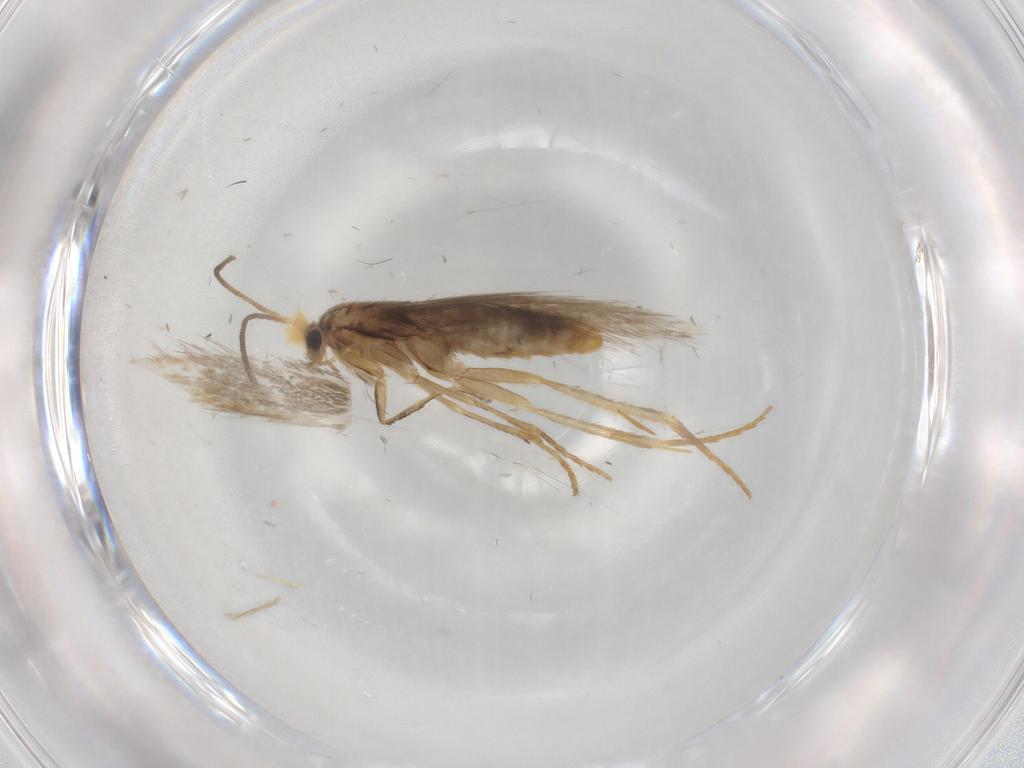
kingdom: Animalia
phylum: Arthropoda
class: Insecta
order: Lepidoptera
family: Nepticulidae
